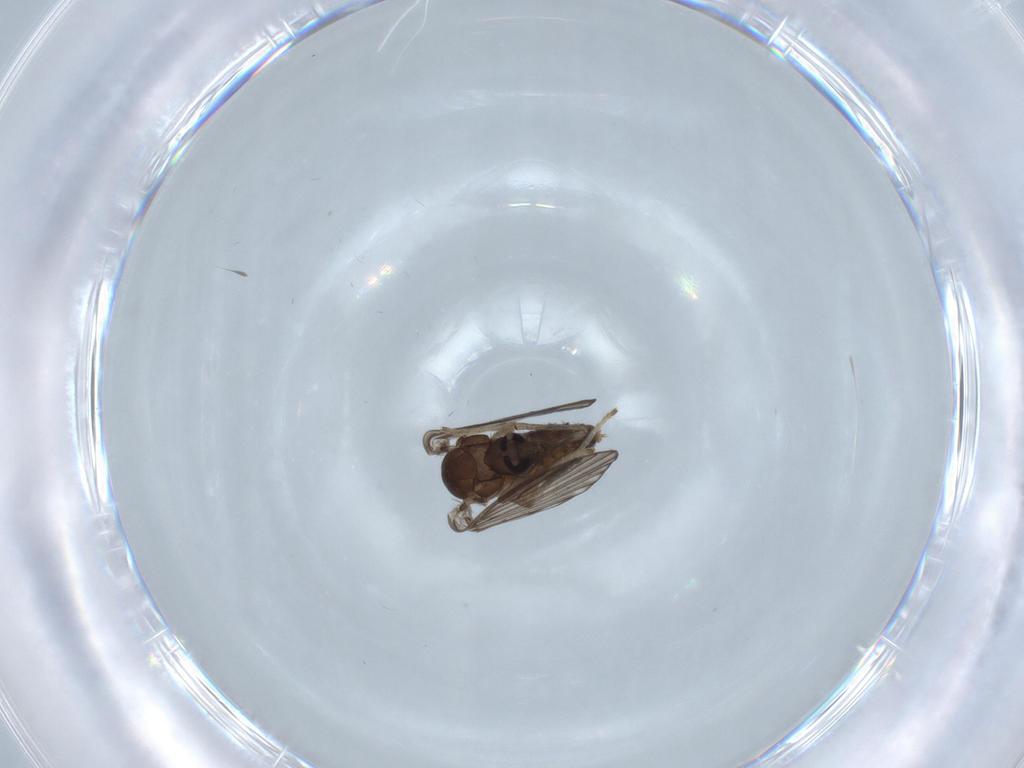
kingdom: Animalia
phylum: Arthropoda
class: Insecta
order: Diptera
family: Psychodidae
